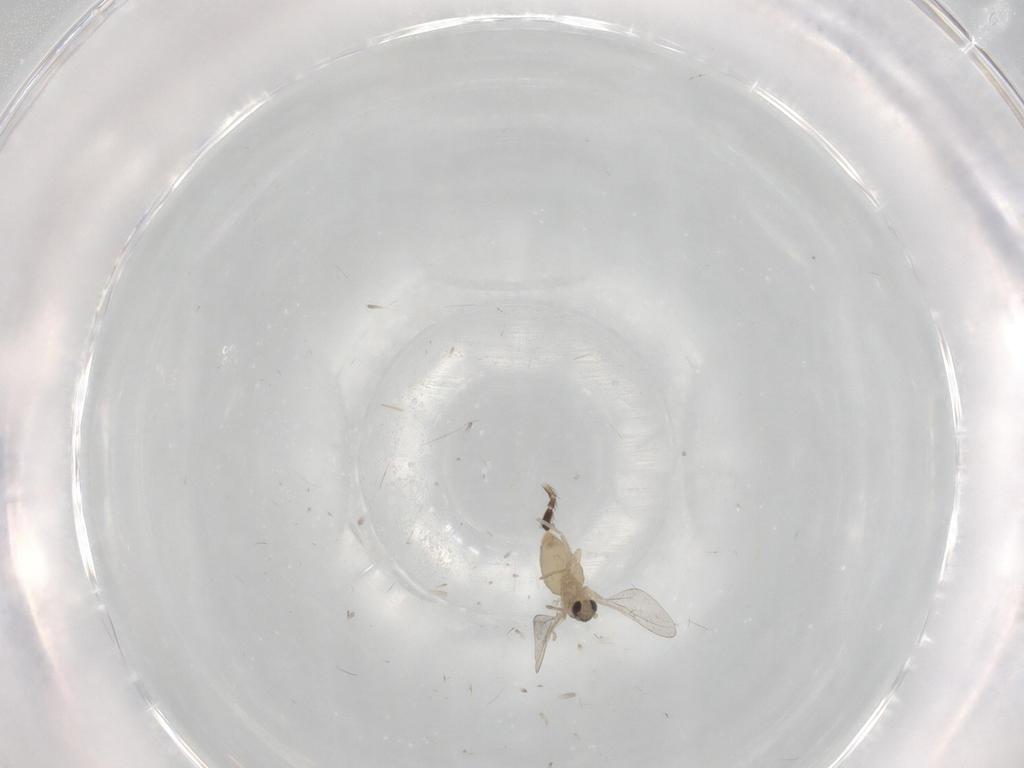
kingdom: Animalia
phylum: Arthropoda
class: Insecta
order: Diptera
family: Cecidomyiidae
